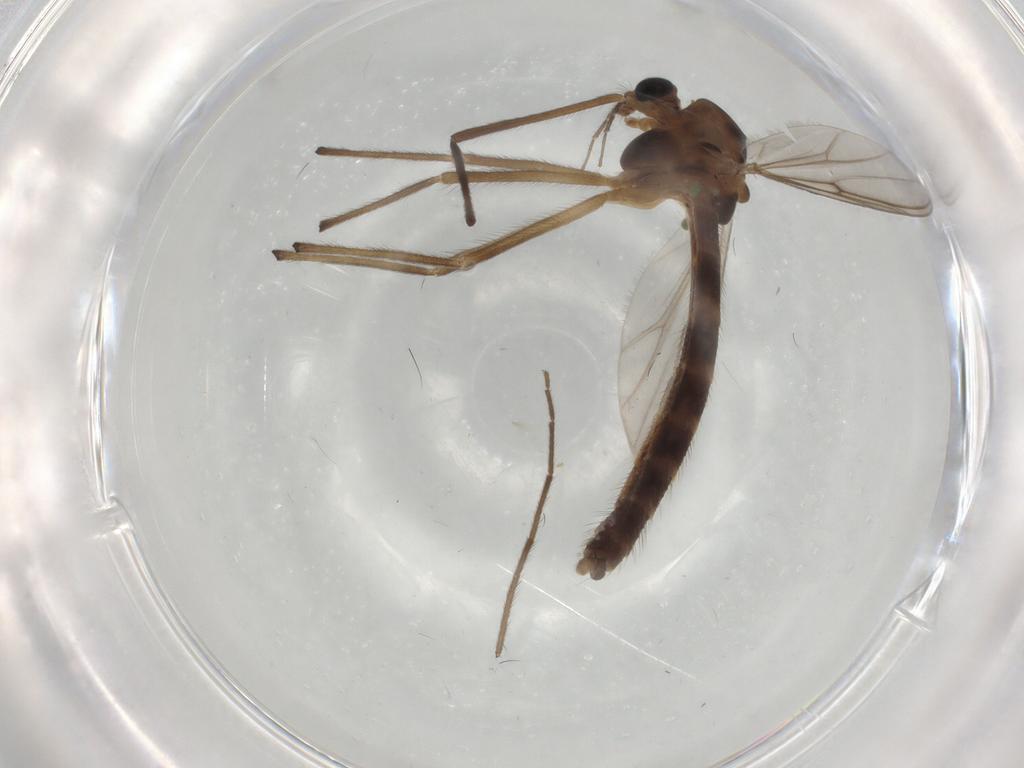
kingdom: Animalia
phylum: Arthropoda
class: Insecta
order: Diptera
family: Chironomidae
